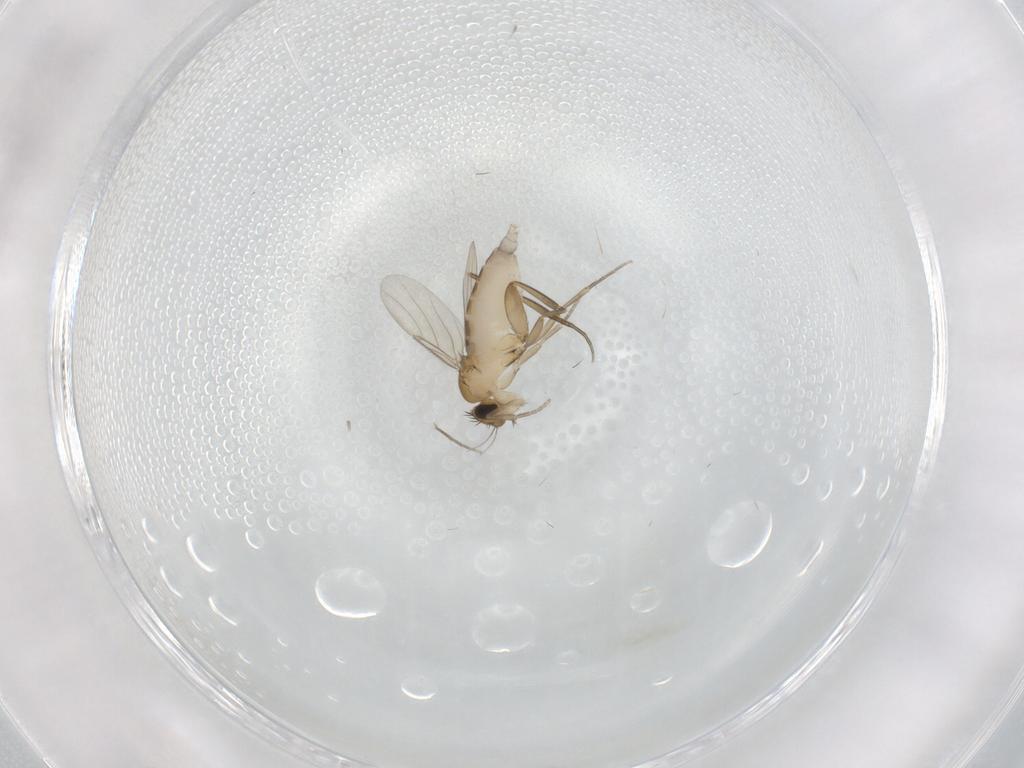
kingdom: Animalia
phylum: Arthropoda
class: Insecta
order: Diptera
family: Phoridae
